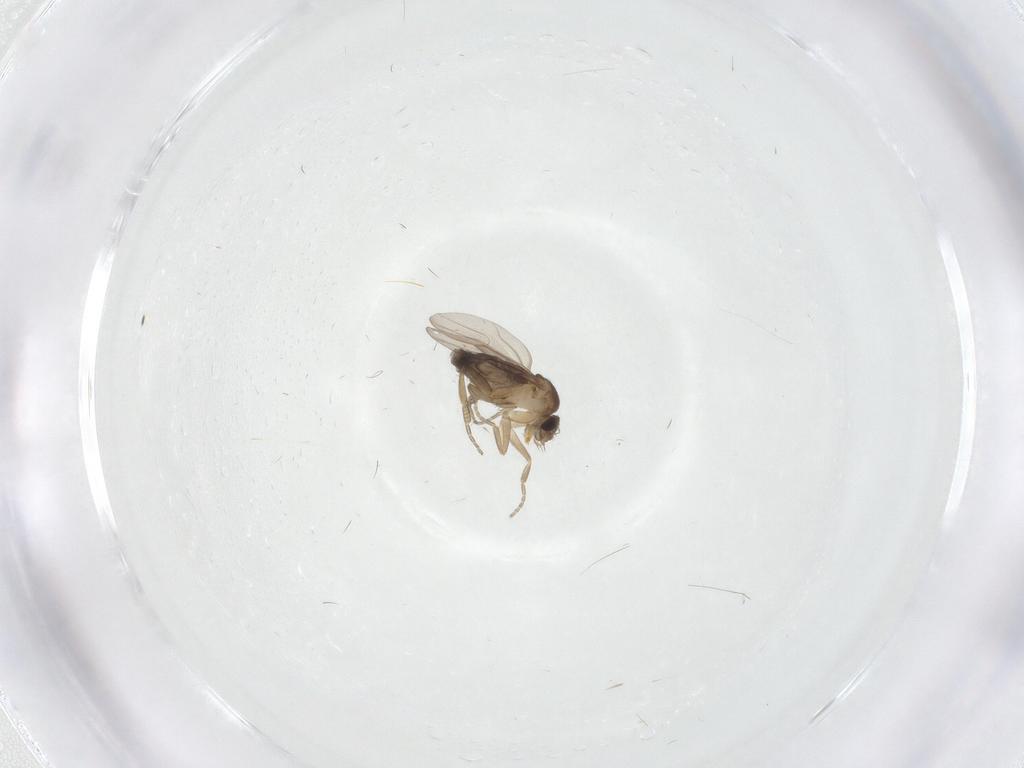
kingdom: Animalia
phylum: Arthropoda
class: Insecta
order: Diptera
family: Phoridae
